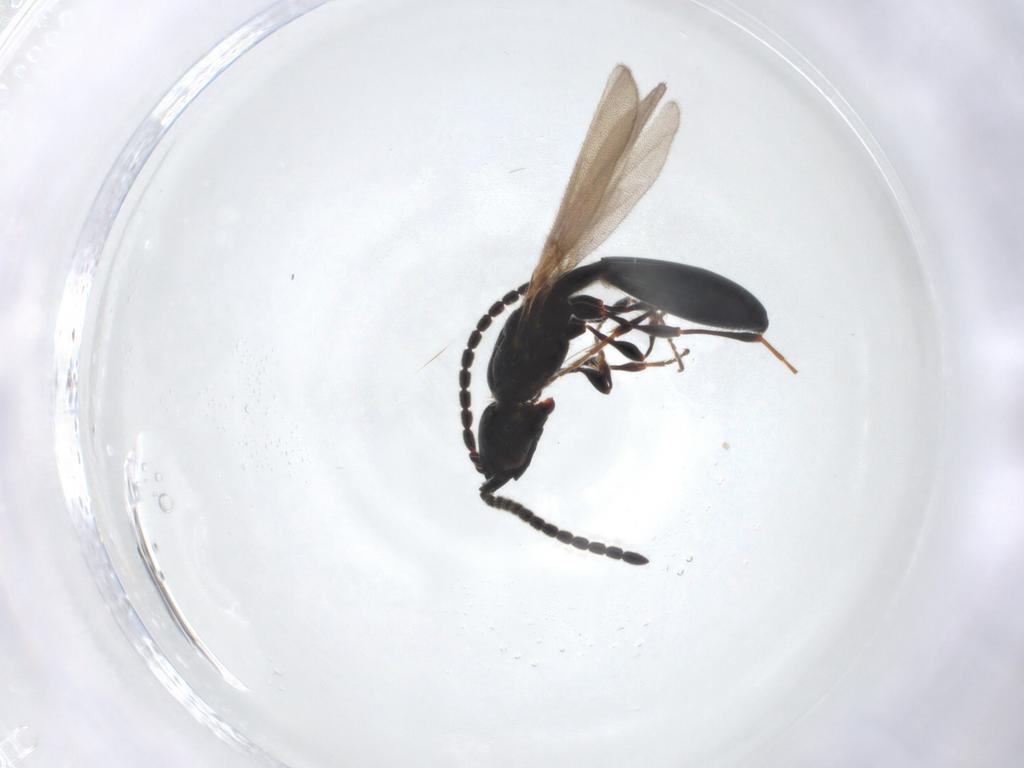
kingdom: Animalia
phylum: Arthropoda
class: Insecta
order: Hymenoptera
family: Diapriidae
